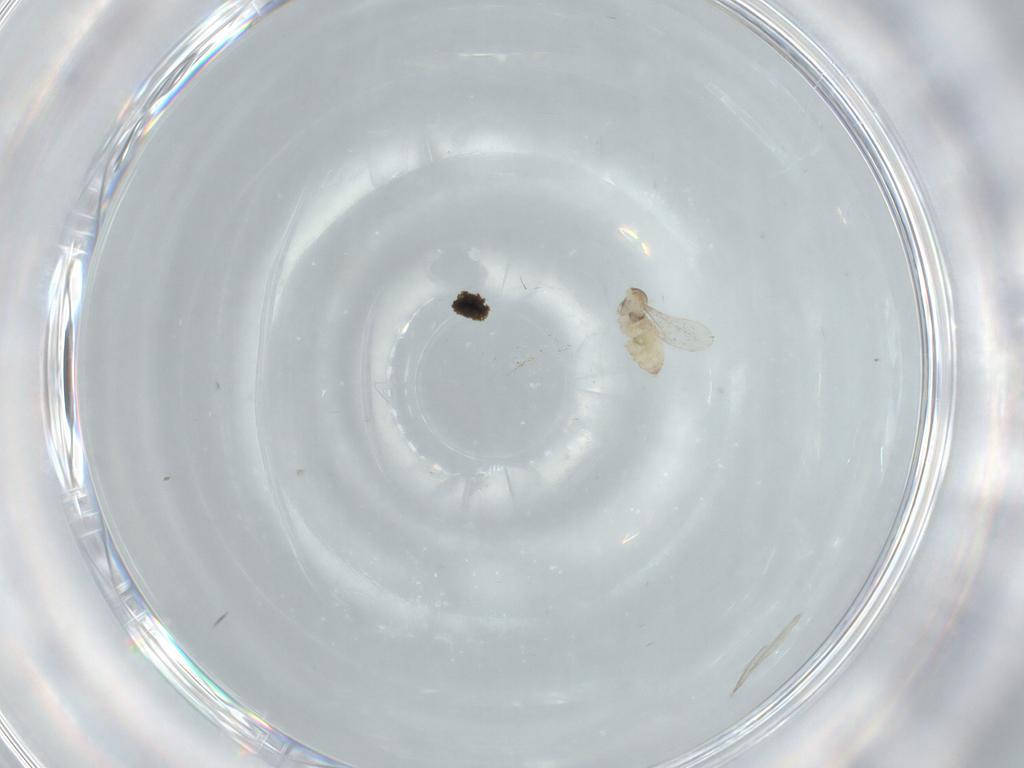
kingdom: Animalia
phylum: Arthropoda
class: Insecta
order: Diptera
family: Cecidomyiidae
